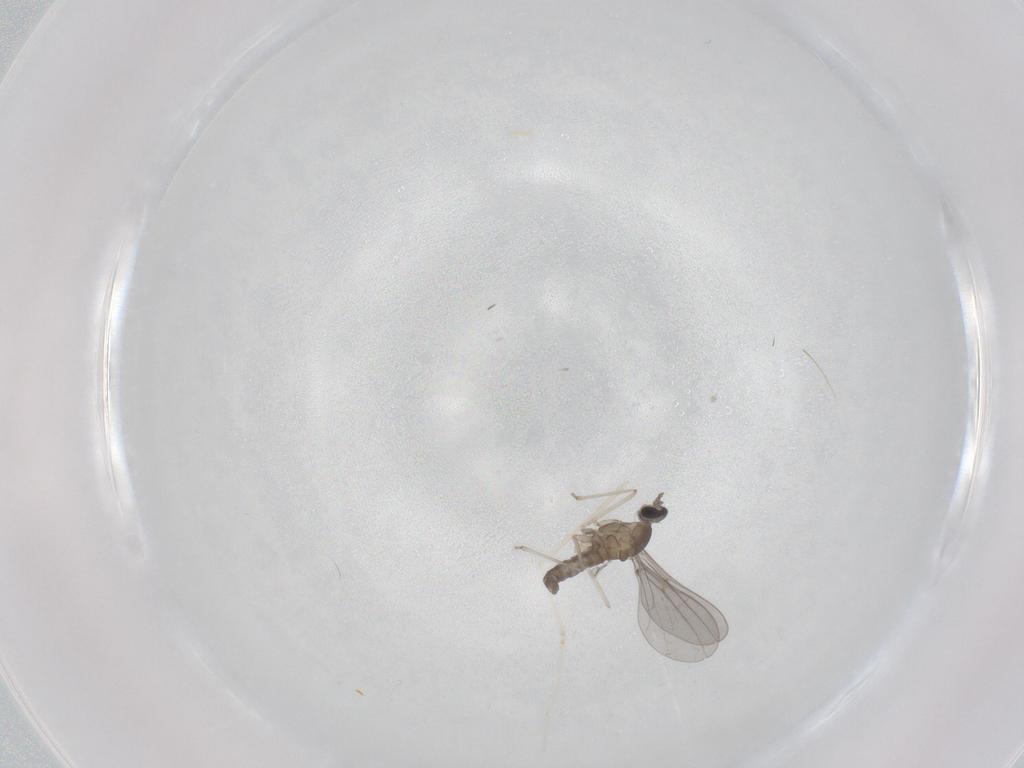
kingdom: Animalia
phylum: Arthropoda
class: Insecta
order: Diptera
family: Cecidomyiidae
